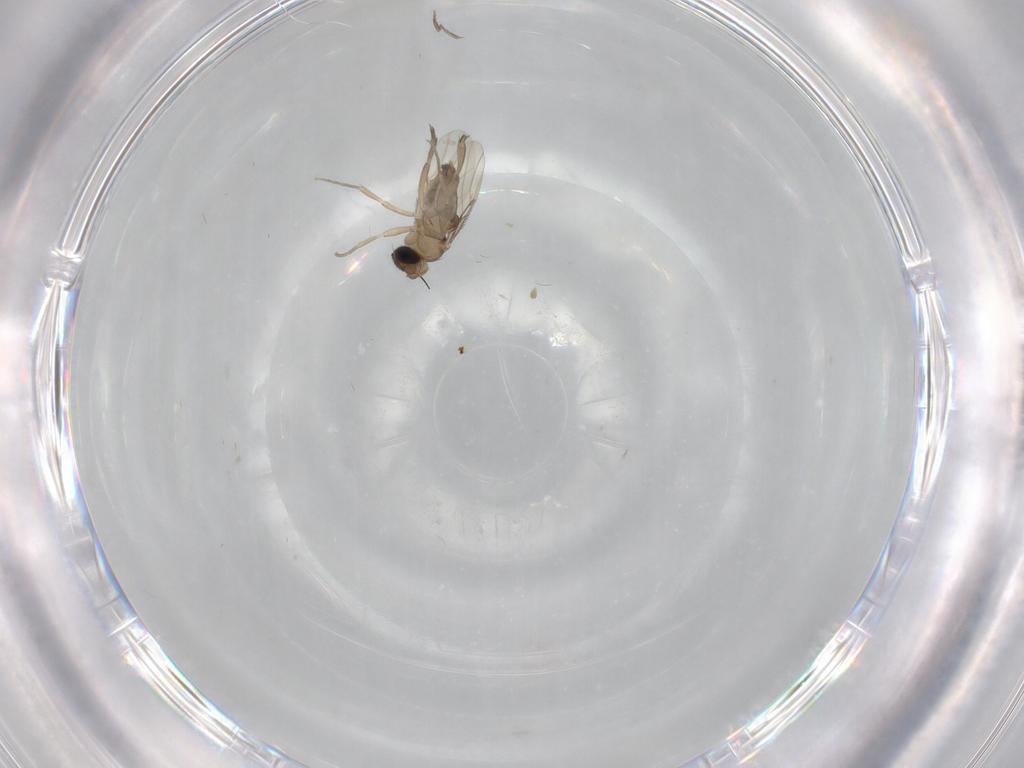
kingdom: Animalia
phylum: Arthropoda
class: Insecta
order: Diptera
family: Phoridae
